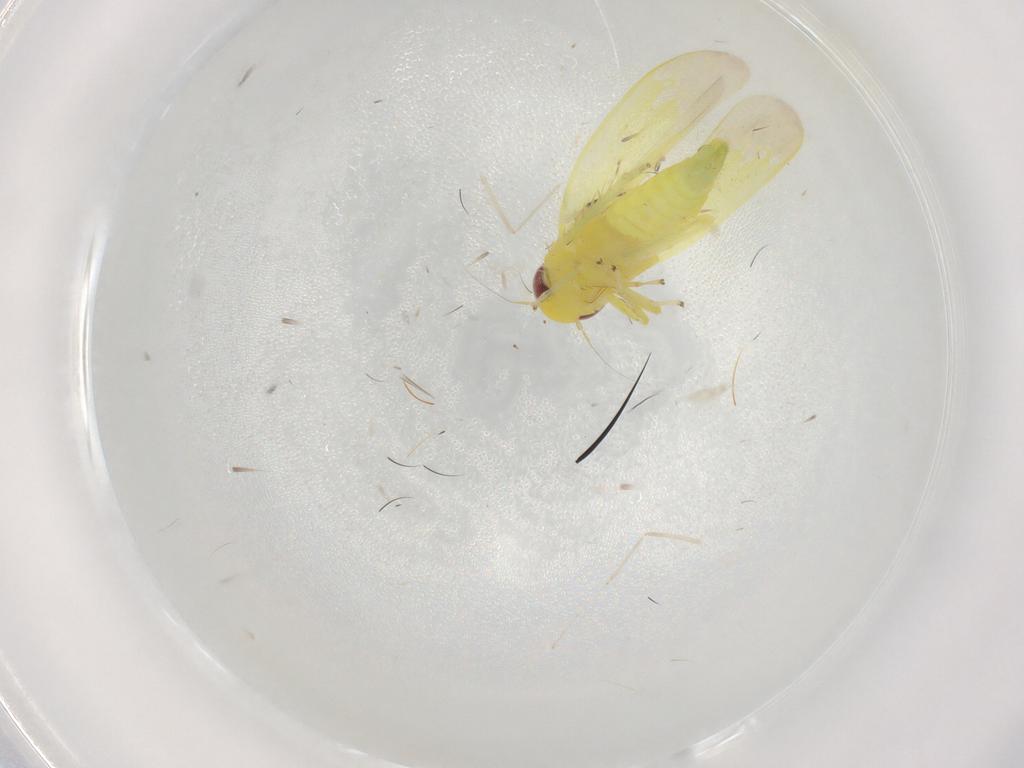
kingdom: Animalia
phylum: Arthropoda
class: Insecta
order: Hemiptera
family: Cicadellidae
